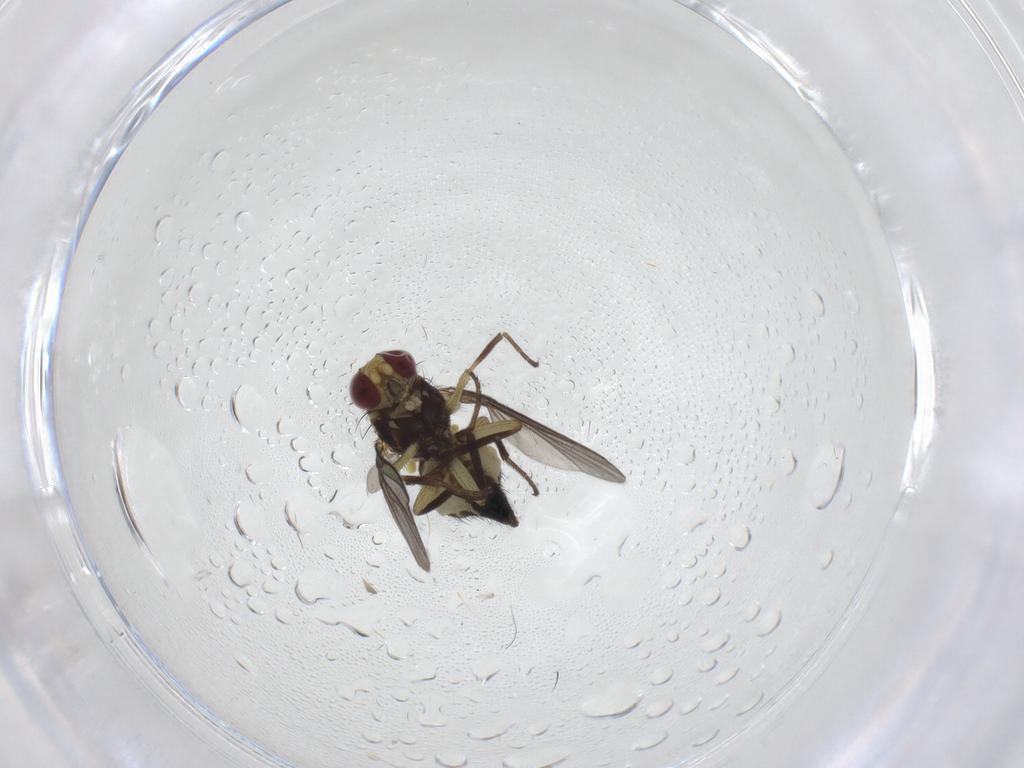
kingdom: Animalia
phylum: Arthropoda
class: Insecta
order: Diptera
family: Agromyzidae
